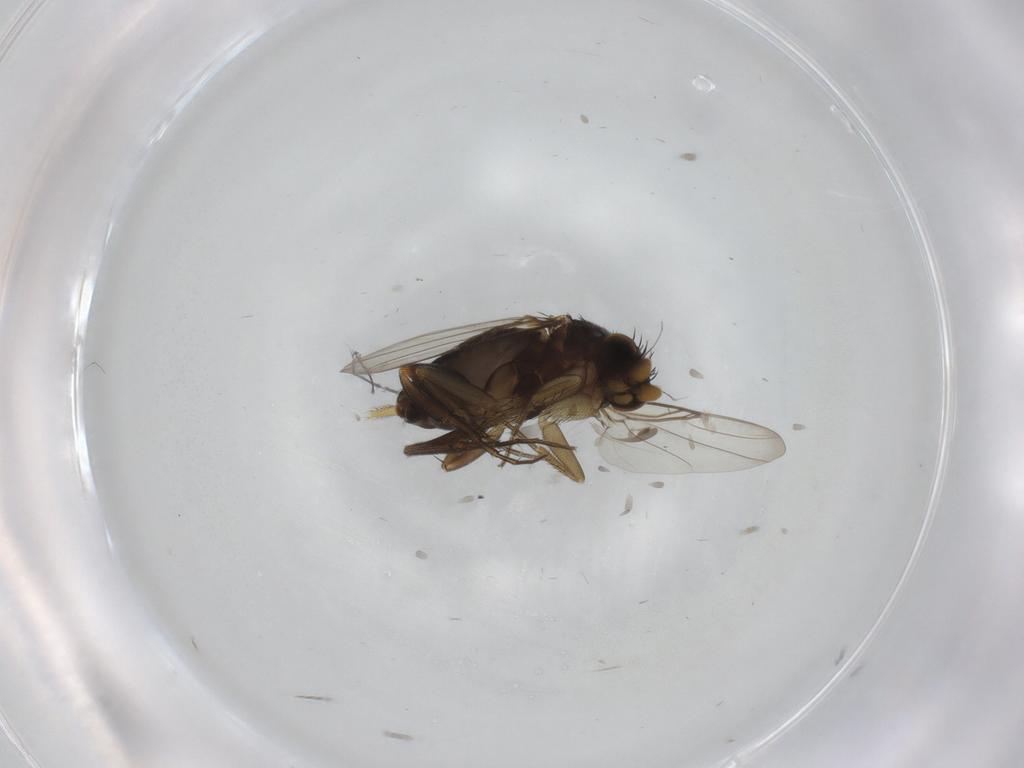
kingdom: Animalia
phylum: Arthropoda
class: Insecta
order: Diptera
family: Phoridae
